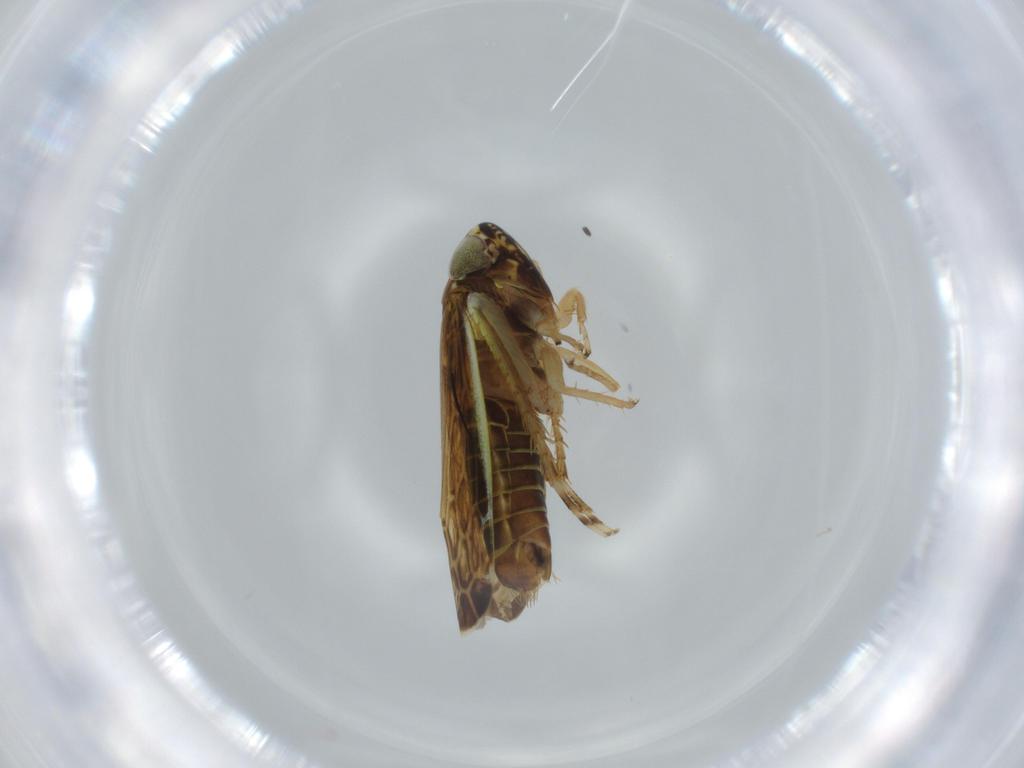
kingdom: Animalia
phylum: Arthropoda
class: Insecta
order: Hemiptera
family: Cicadellidae
